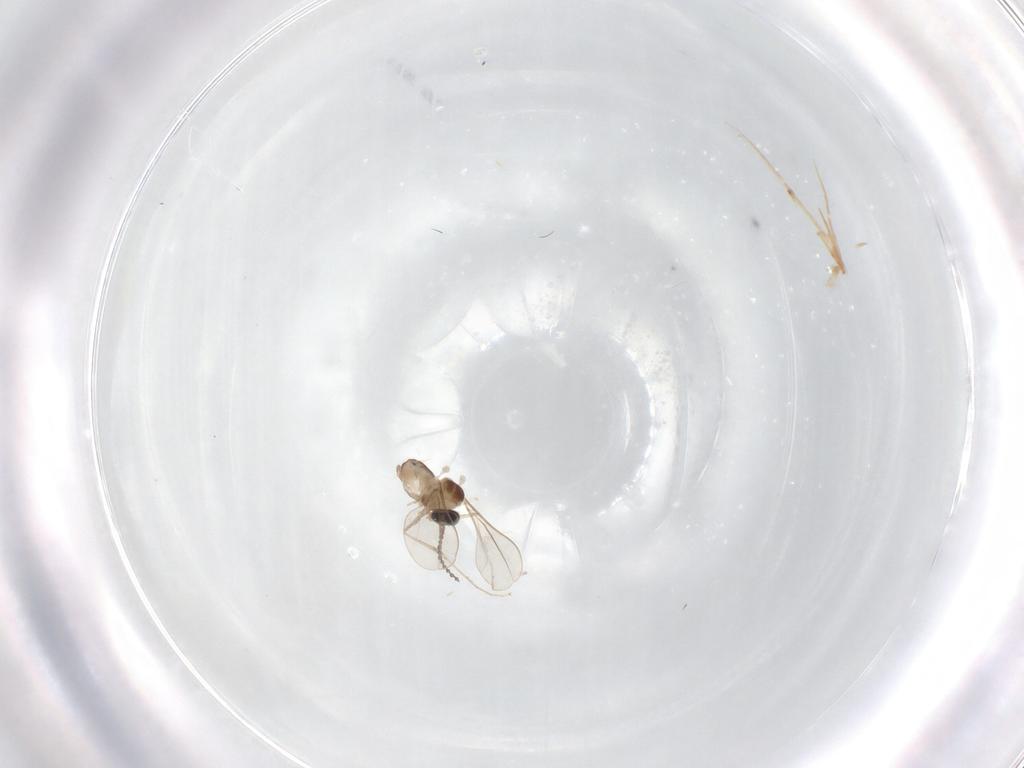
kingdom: Animalia
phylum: Arthropoda
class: Insecta
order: Diptera
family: Cecidomyiidae
